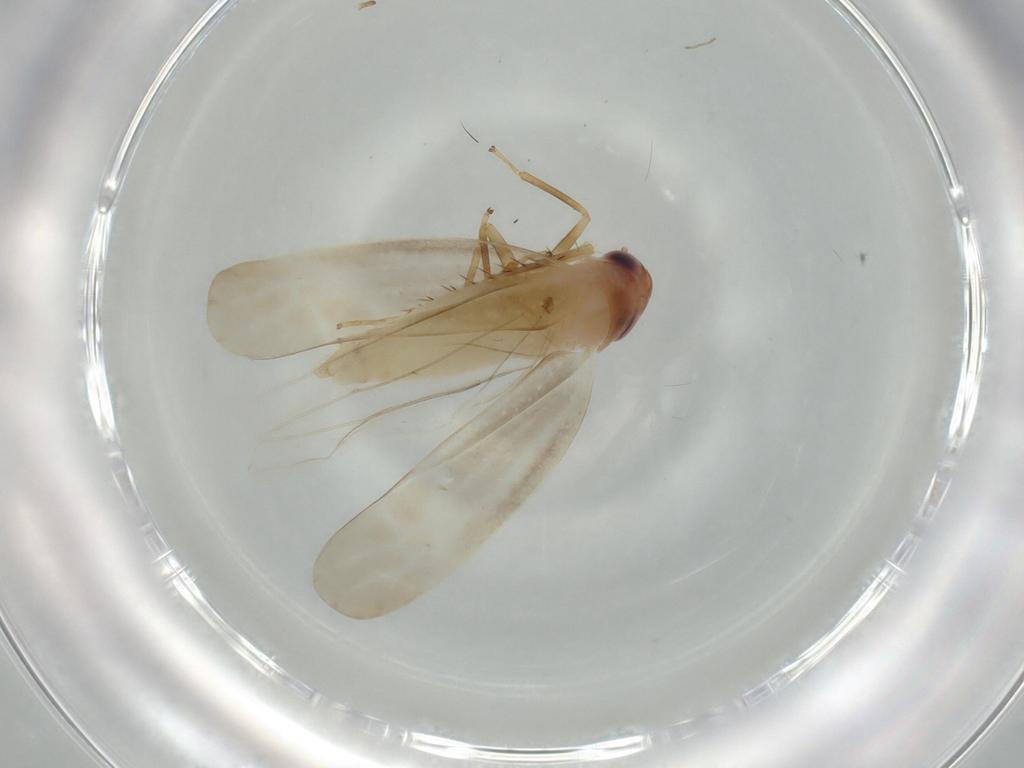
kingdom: Animalia
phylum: Arthropoda
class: Insecta
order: Hemiptera
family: Cicadellidae
